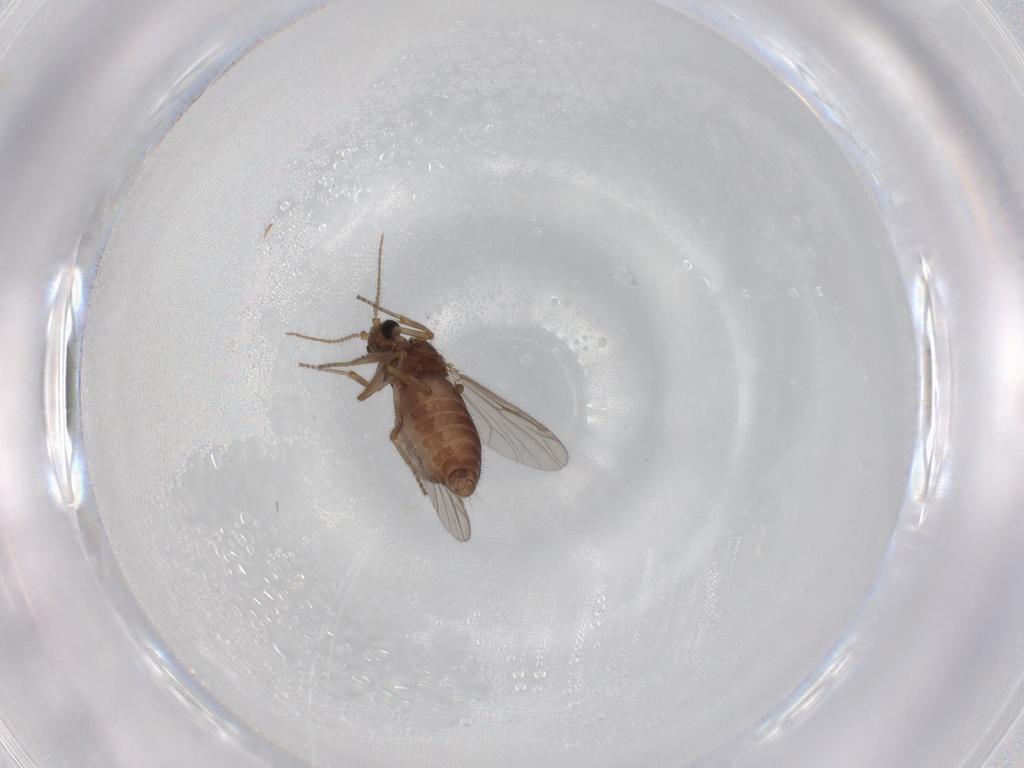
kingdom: Animalia
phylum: Arthropoda
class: Insecta
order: Diptera
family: Ceratopogonidae
